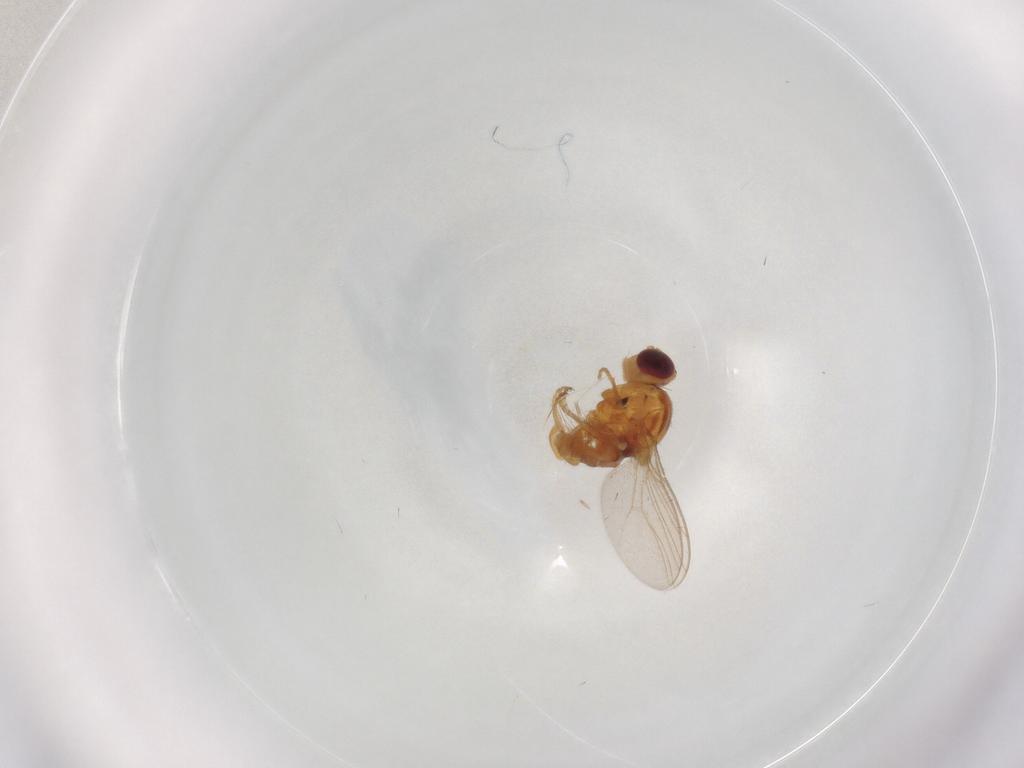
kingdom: Animalia
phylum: Arthropoda
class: Insecta
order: Diptera
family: Chloropidae
